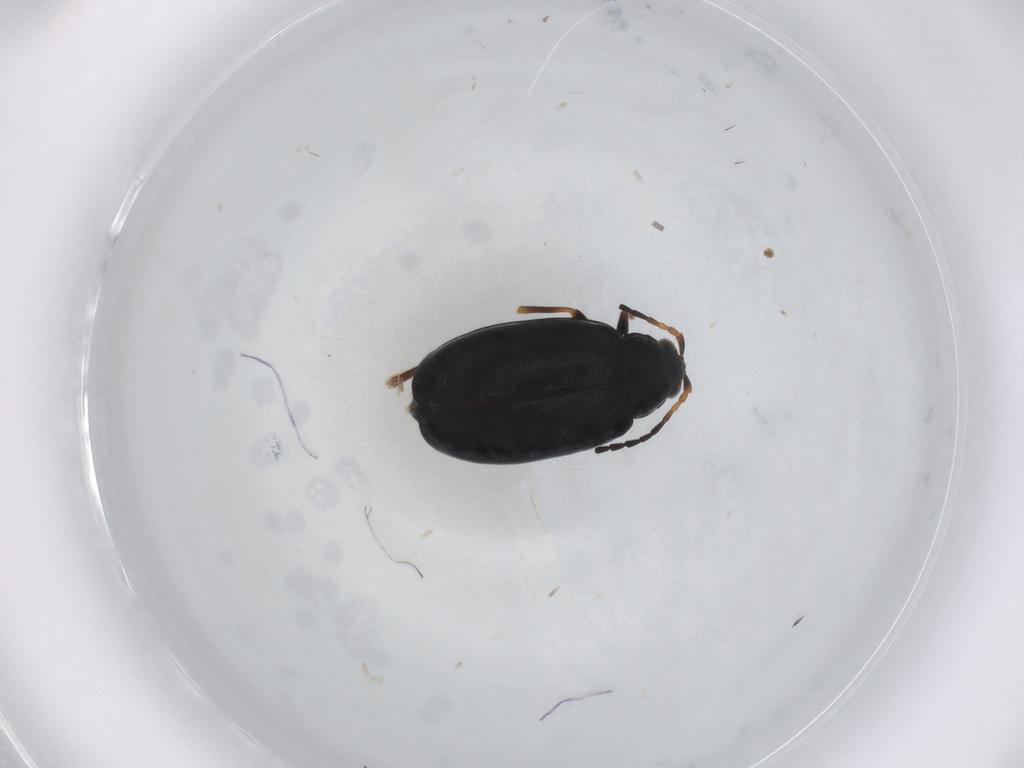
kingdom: Animalia
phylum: Arthropoda
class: Insecta
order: Coleoptera
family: Chrysomelidae
